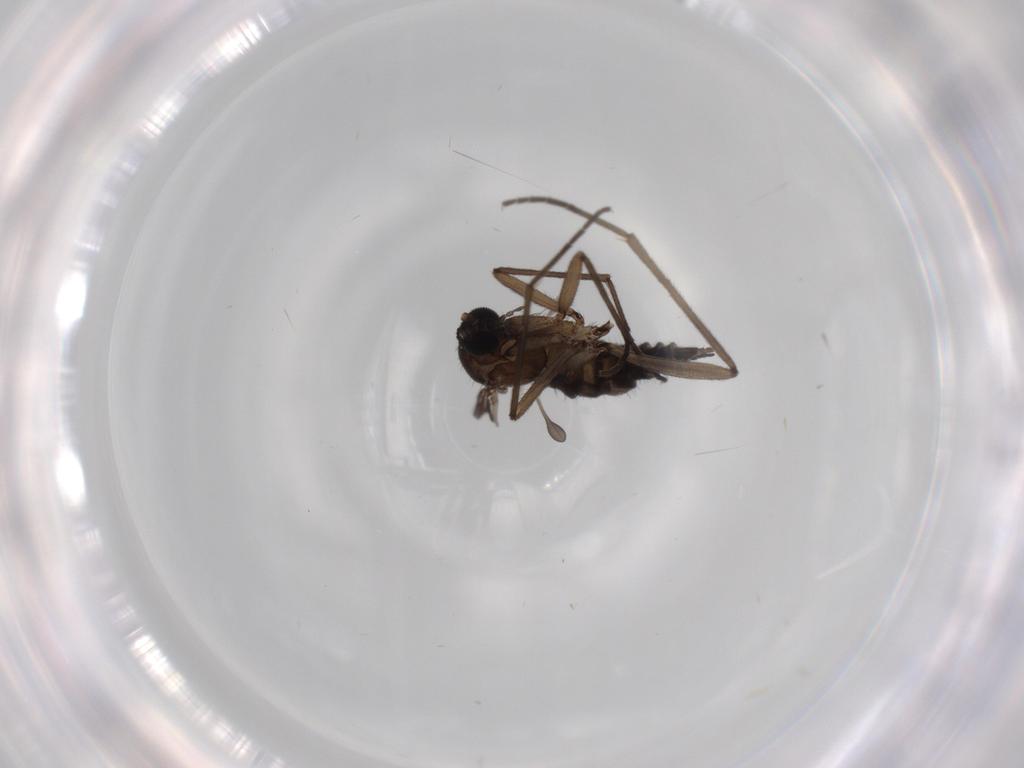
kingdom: Animalia
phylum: Arthropoda
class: Insecta
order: Diptera
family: Sciaridae
